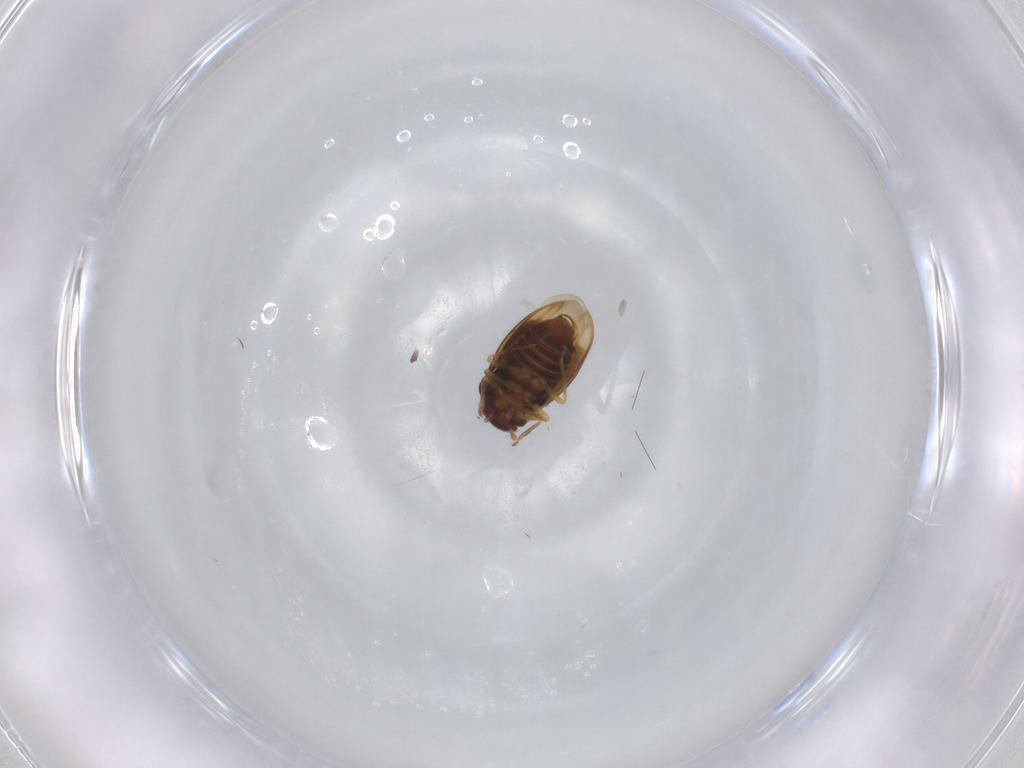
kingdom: Animalia
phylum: Arthropoda
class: Insecta
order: Hemiptera
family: Schizopteridae
